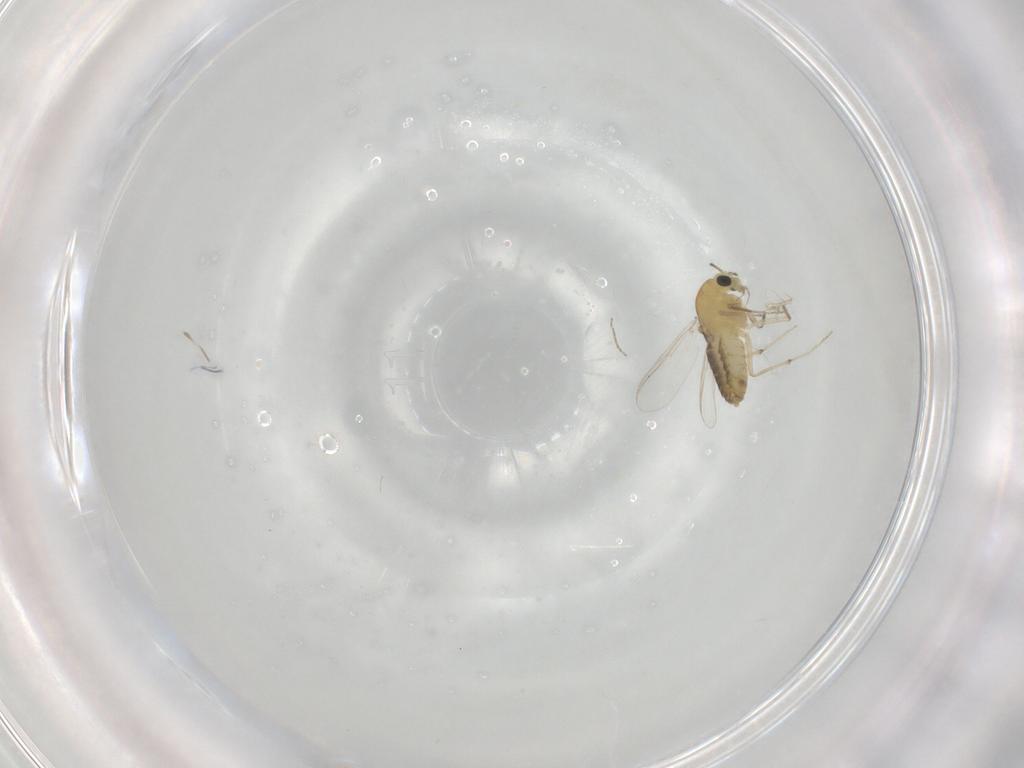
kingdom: Animalia
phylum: Arthropoda
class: Insecta
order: Diptera
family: Chironomidae
